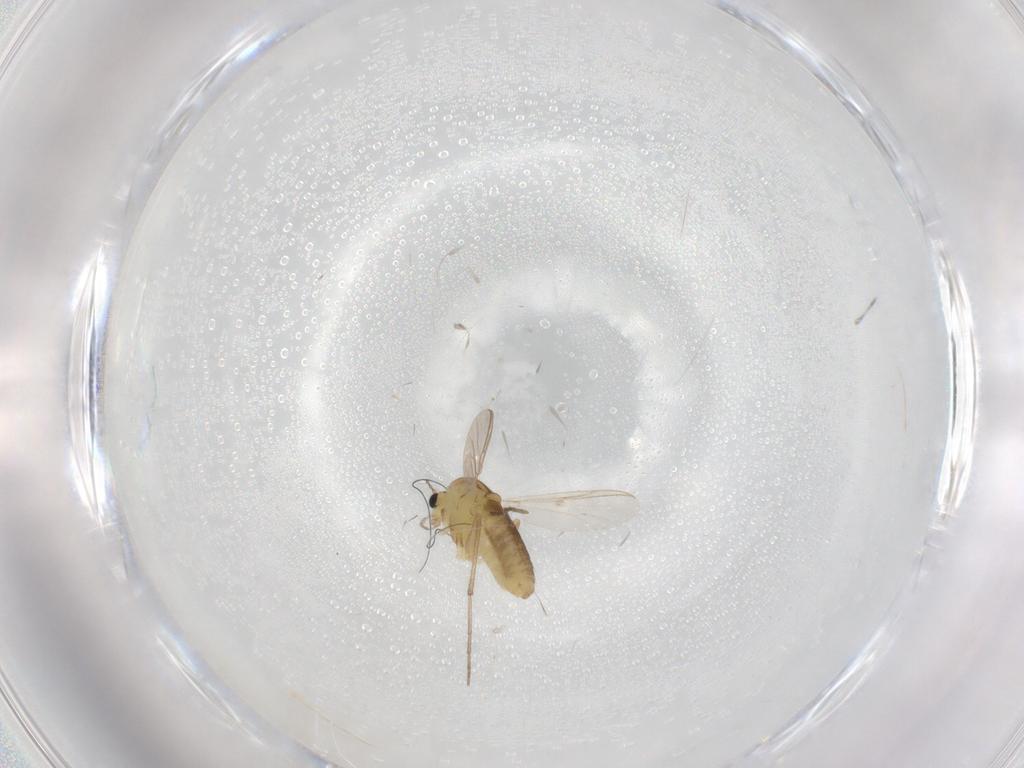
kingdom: Animalia
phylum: Arthropoda
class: Insecta
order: Diptera
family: Chironomidae
